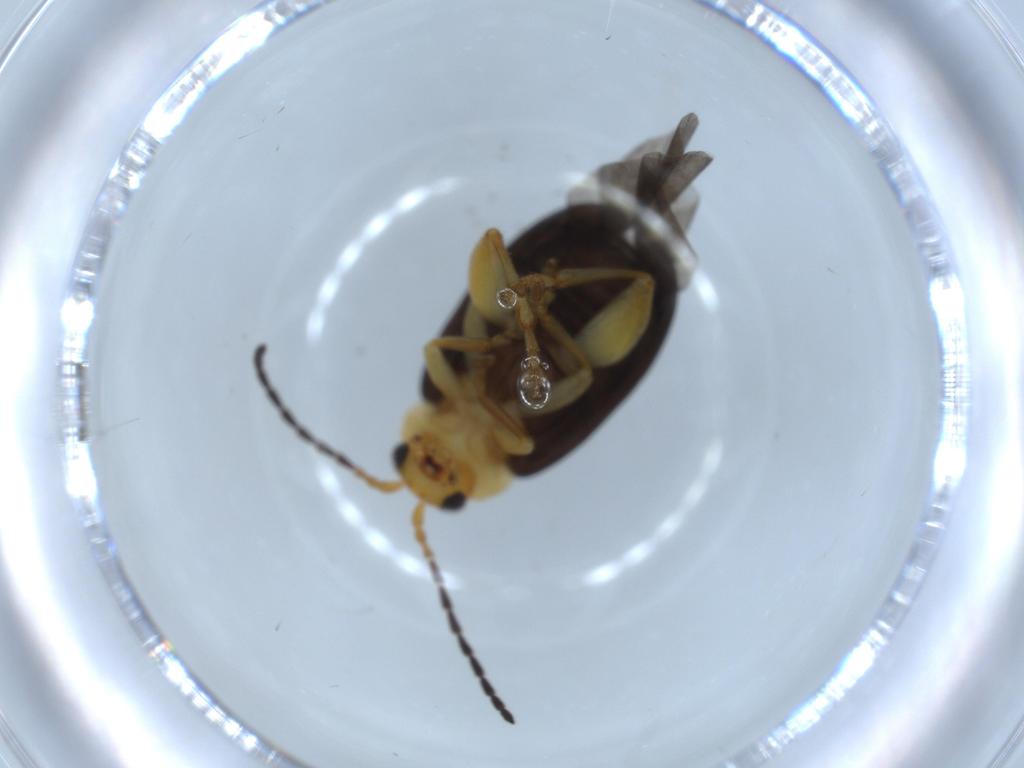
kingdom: Animalia
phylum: Arthropoda
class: Insecta
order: Coleoptera
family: Chrysomelidae
